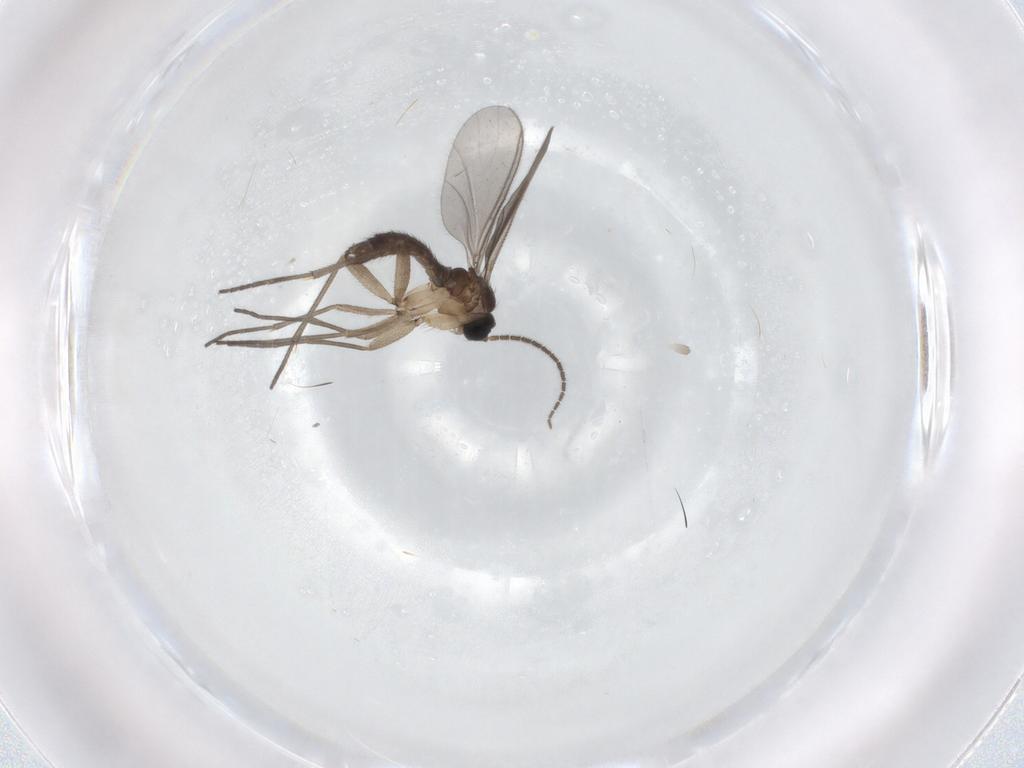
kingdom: Animalia
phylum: Arthropoda
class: Insecta
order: Diptera
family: Sciaridae
